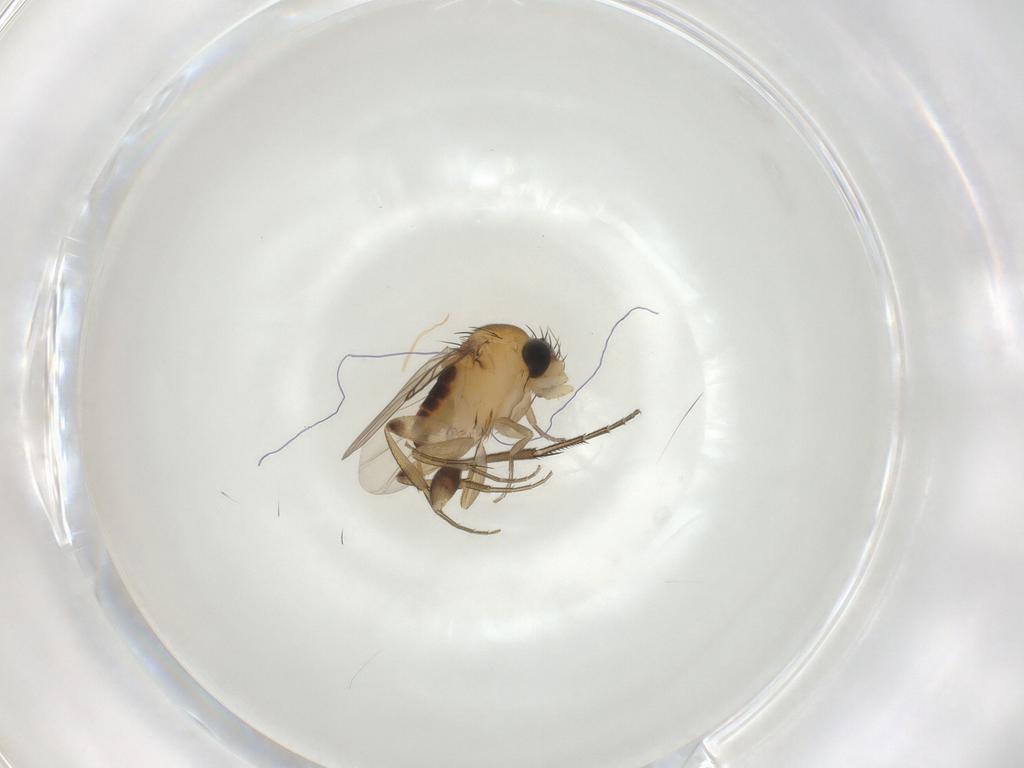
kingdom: Animalia
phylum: Arthropoda
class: Insecta
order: Diptera
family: Phoridae
